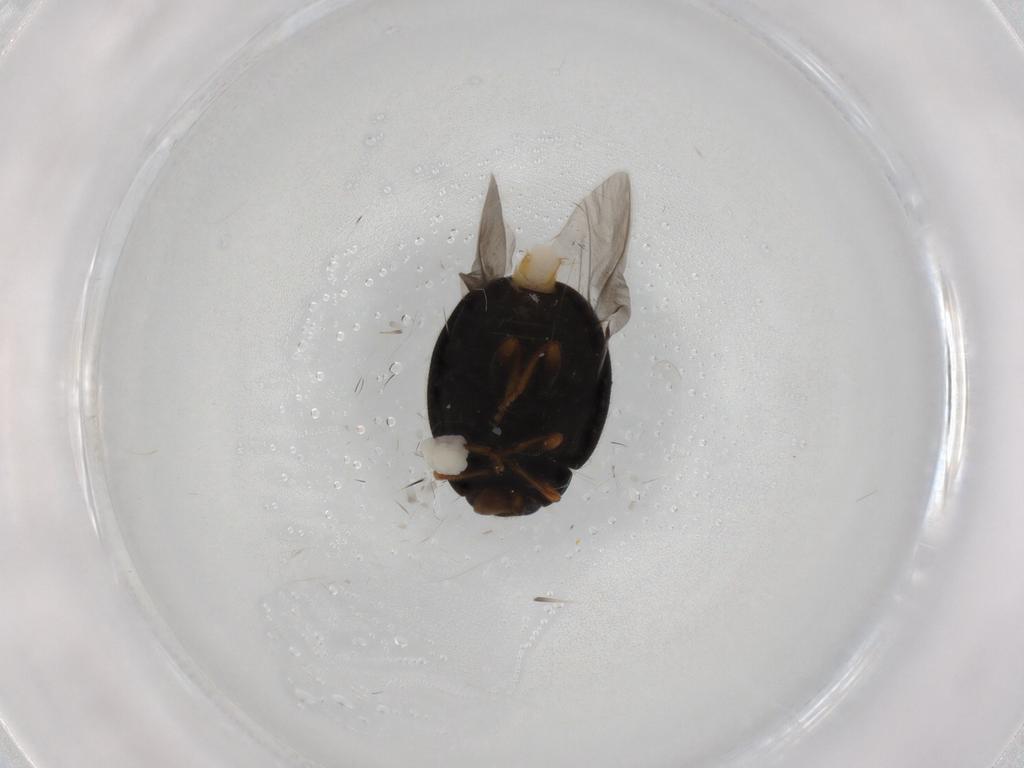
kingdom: Animalia
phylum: Arthropoda
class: Insecta
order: Coleoptera
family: Coccinellidae
